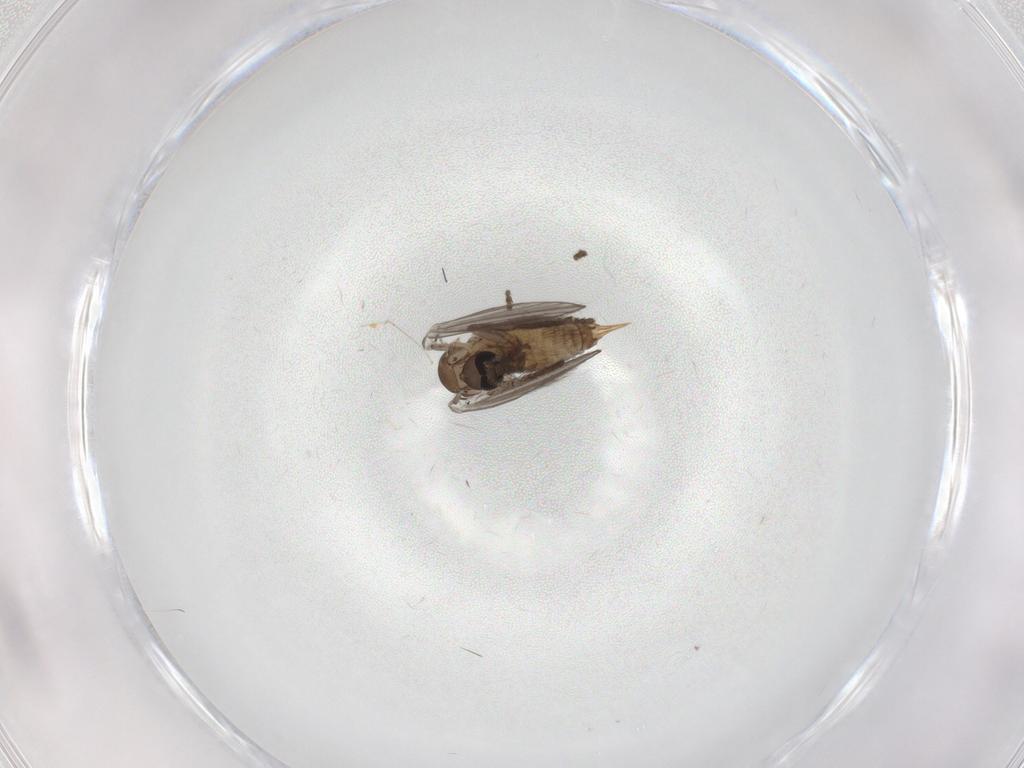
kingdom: Animalia
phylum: Arthropoda
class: Insecta
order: Diptera
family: Psychodidae
